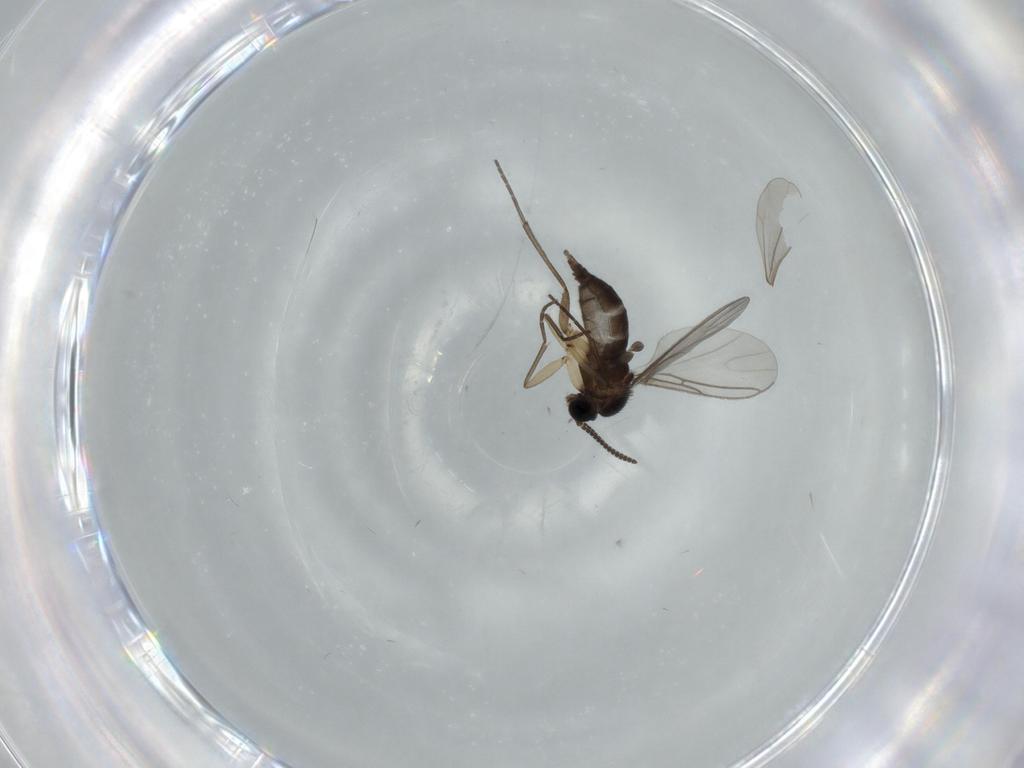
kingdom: Animalia
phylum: Arthropoda
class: Insecta
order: Diptera
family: Sciaridae
